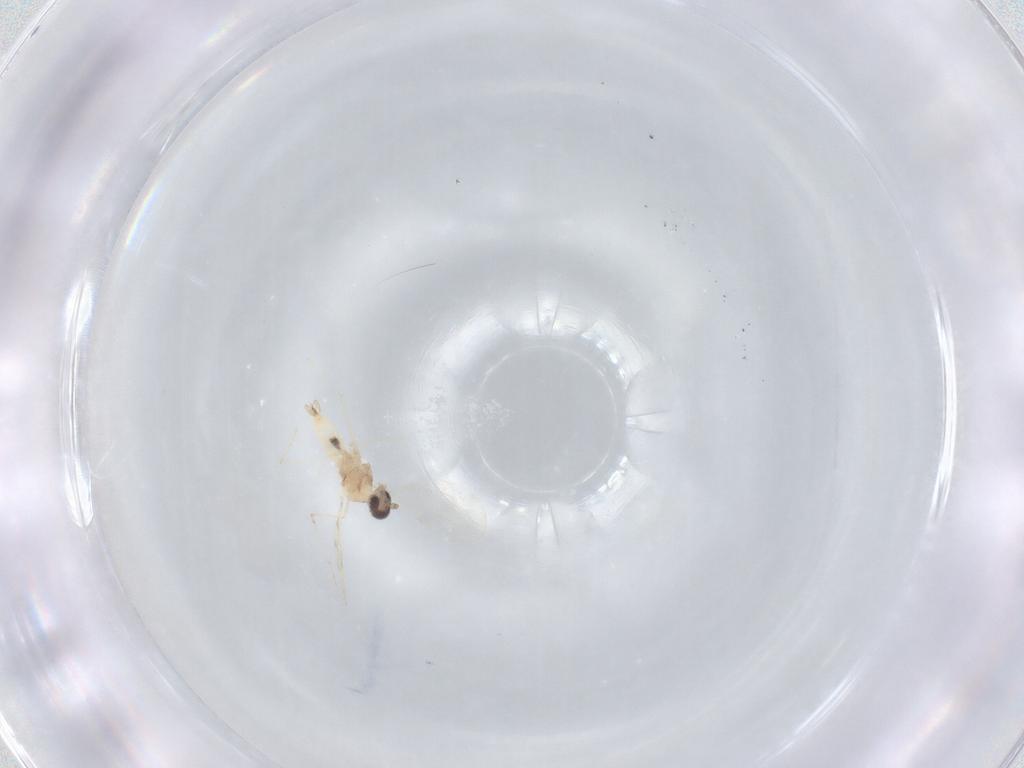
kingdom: Animalia
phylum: Arthropoda
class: Insecta
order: Diptera
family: Cecidomyiidae
